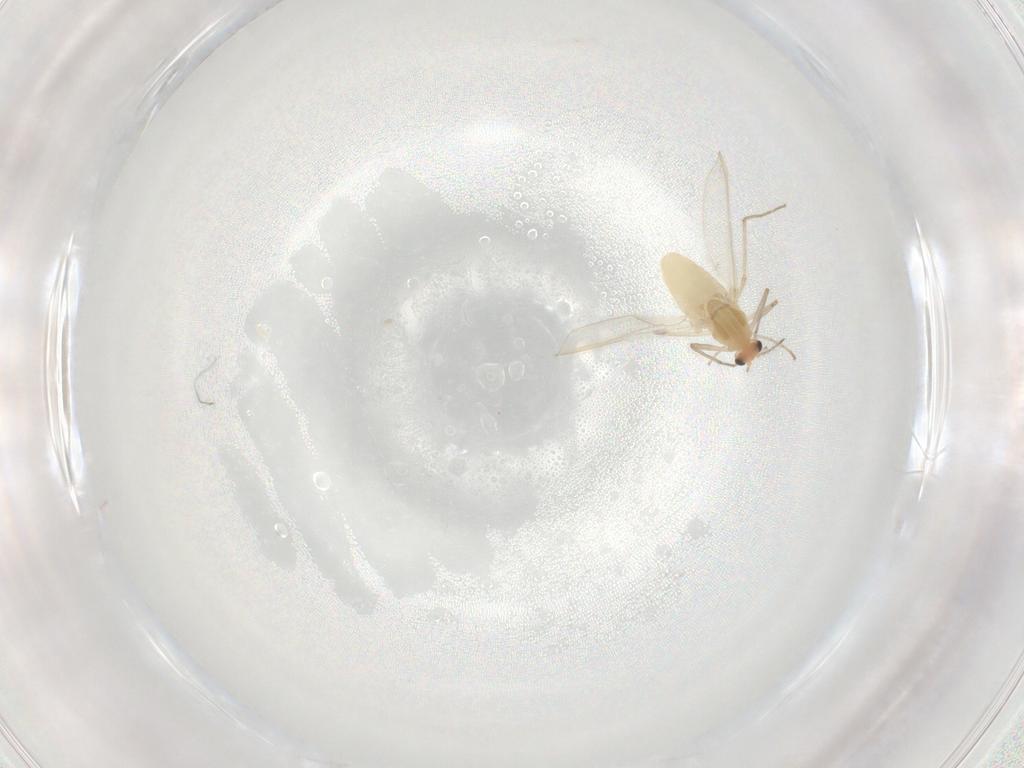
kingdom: Animalia
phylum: Arthropoda
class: Insecta
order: Diptera
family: Chironomidae
